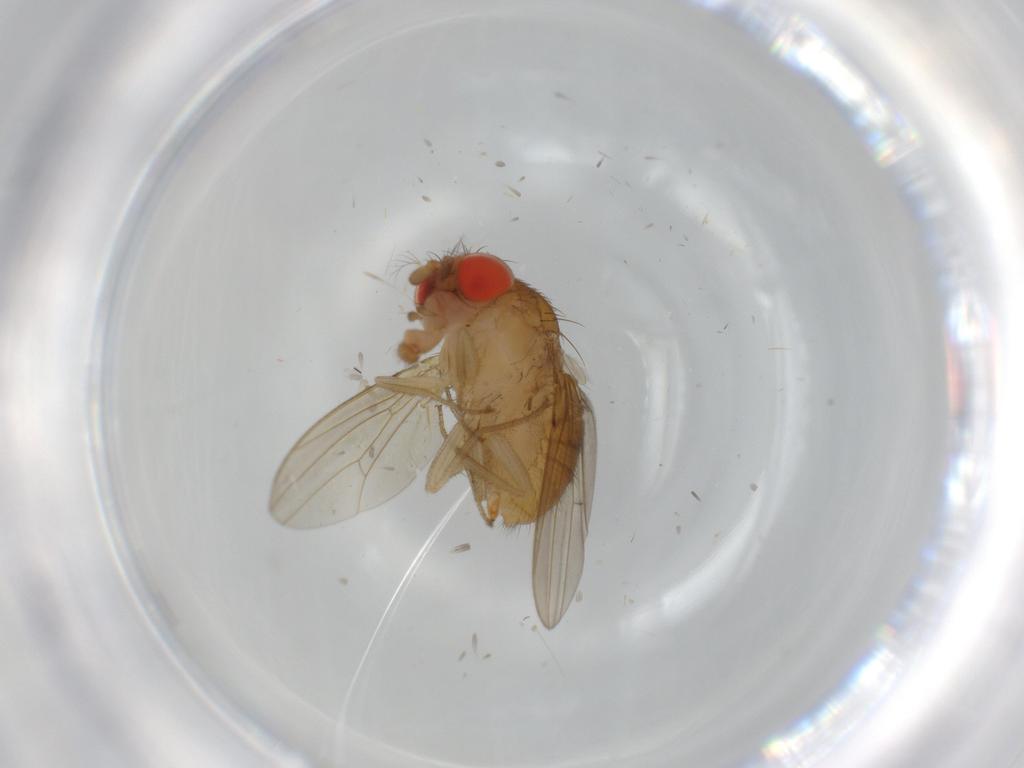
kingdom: Animalia
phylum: Arthropoda
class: Insecta
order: Diptera
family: Drosophilidae
